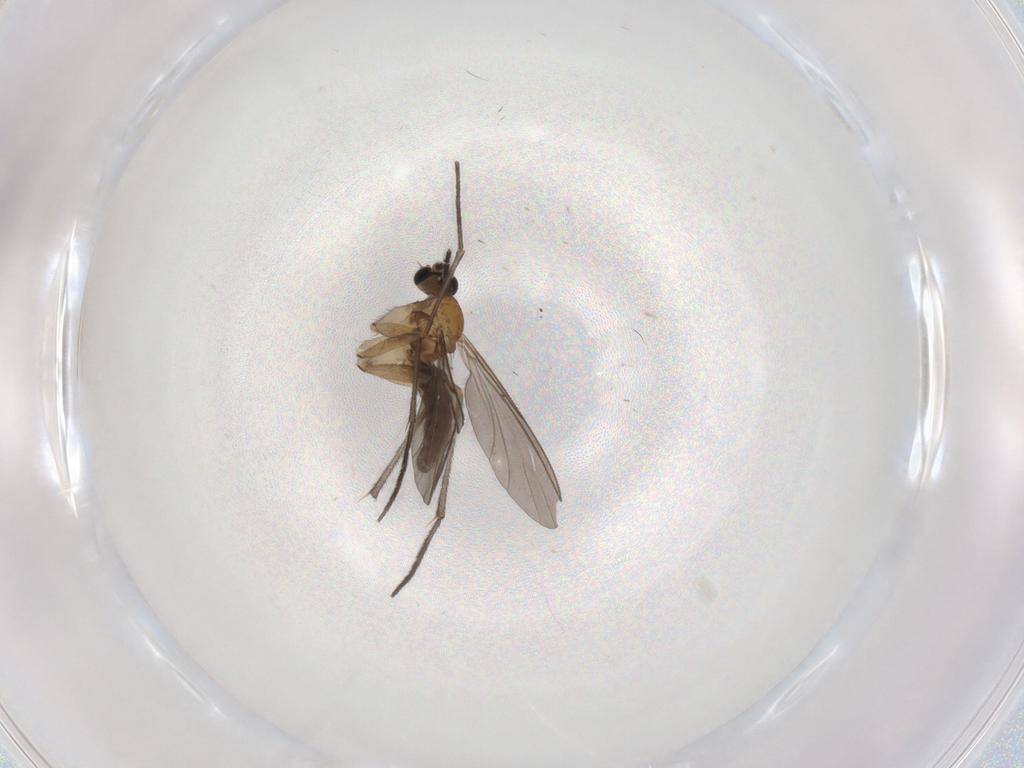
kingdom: Animalia
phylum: Arthropoda
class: Insecta
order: Diptera
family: Sciaridae
